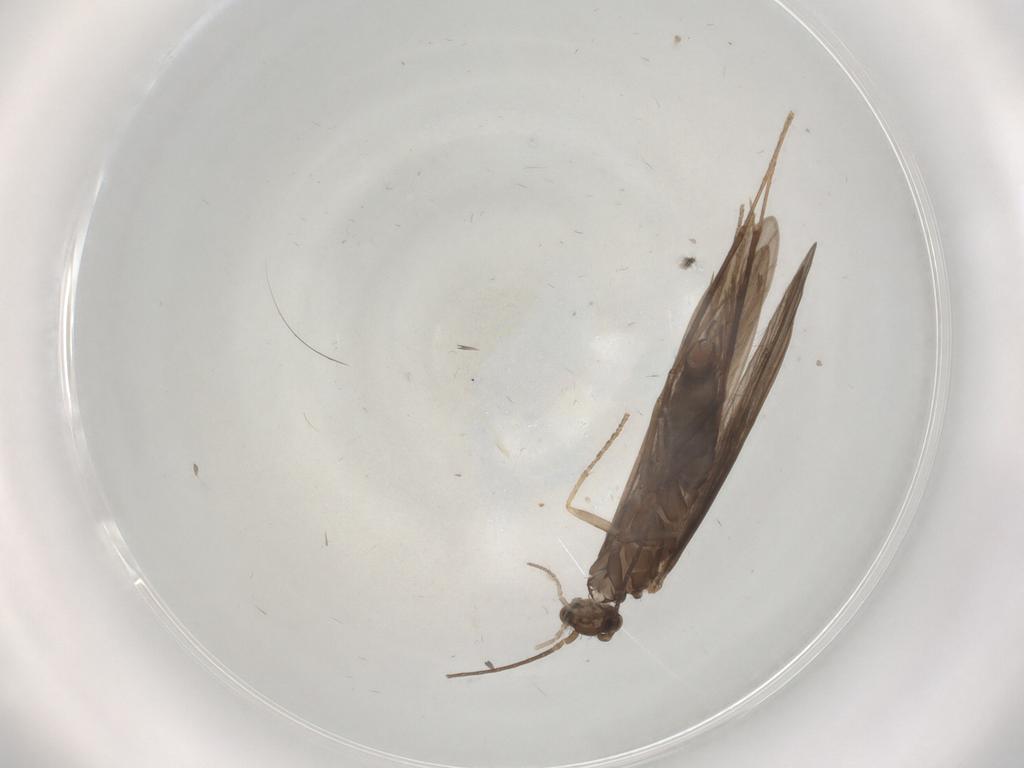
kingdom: Animalia
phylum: Arthropoda
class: Insecta
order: Trichoptera
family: Xiphocentronidae
